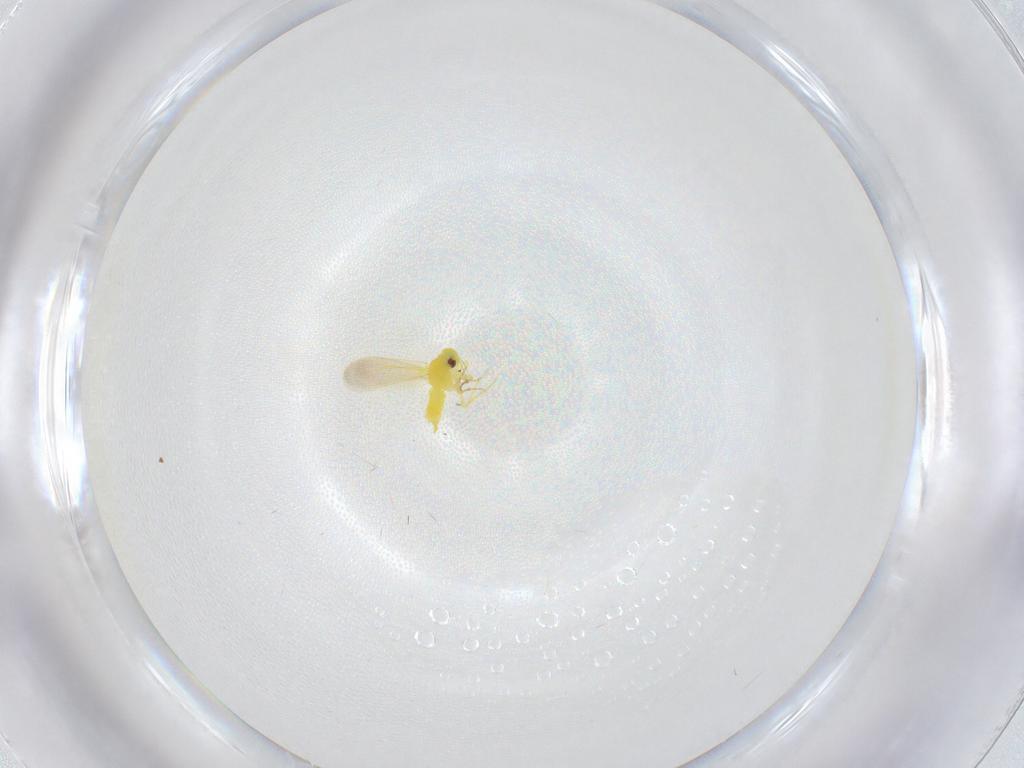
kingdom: Animalia
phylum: Arthropoda
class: Insecta
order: Hemiptera
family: Aleyrodidae
